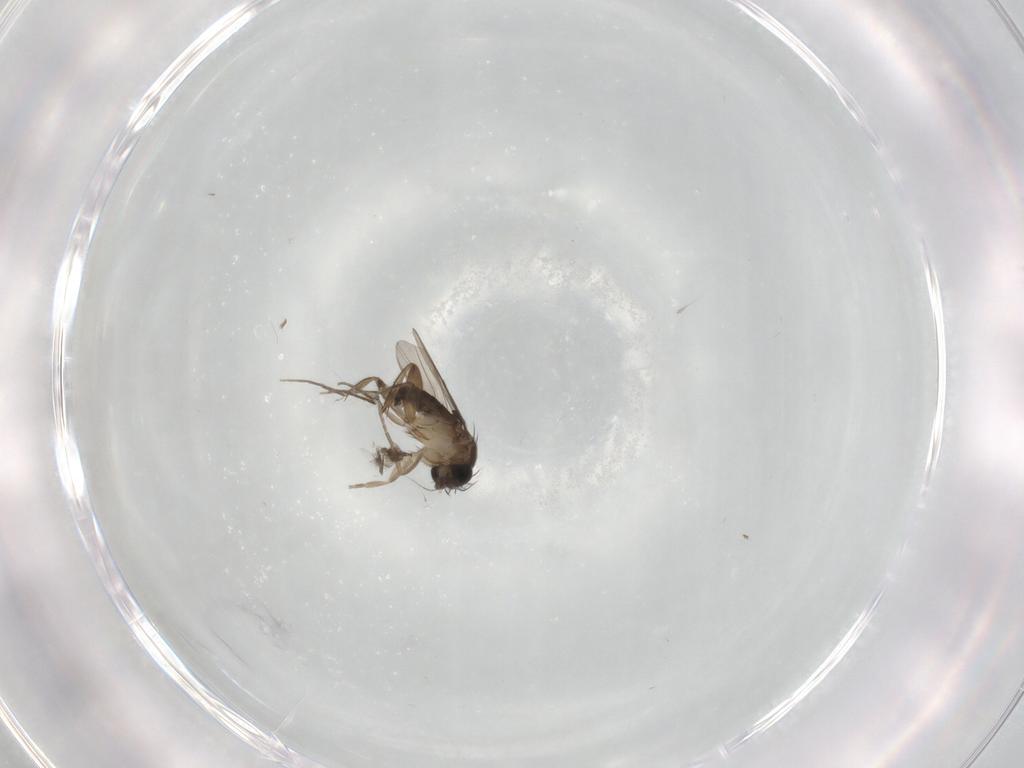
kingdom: Animalia
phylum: Arthropoda
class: Insecta
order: Diptera
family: Phoridae
